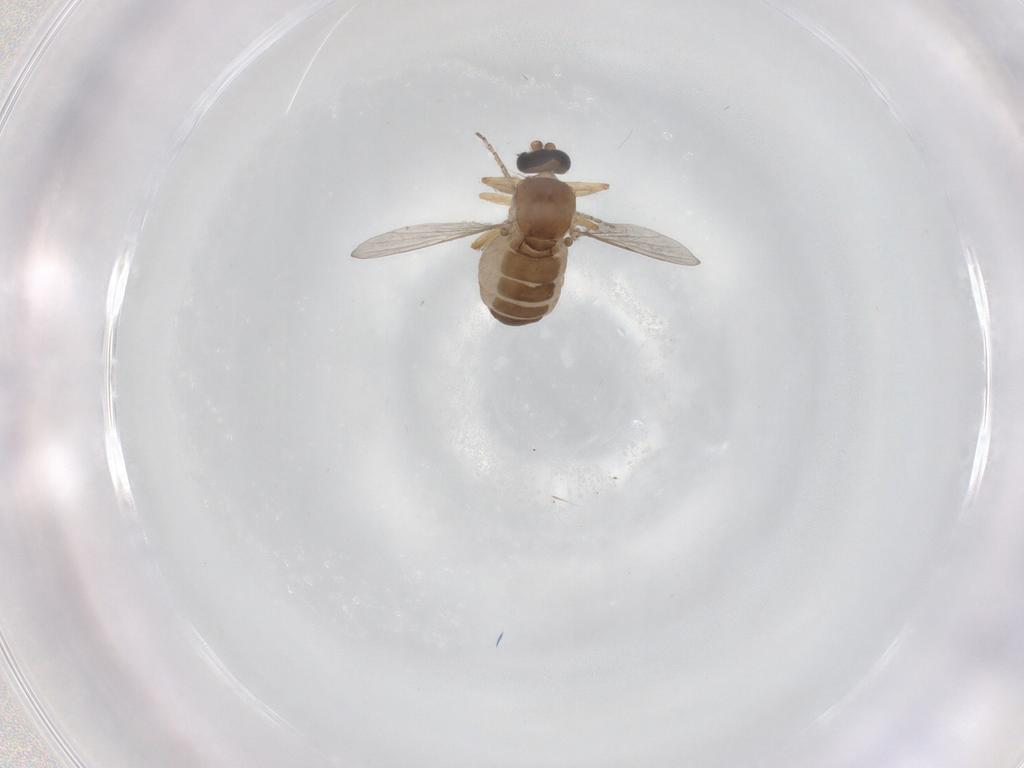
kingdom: Animalia
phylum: Arthropoda
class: Insecta
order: Diptera
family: Ceratopogonidae
